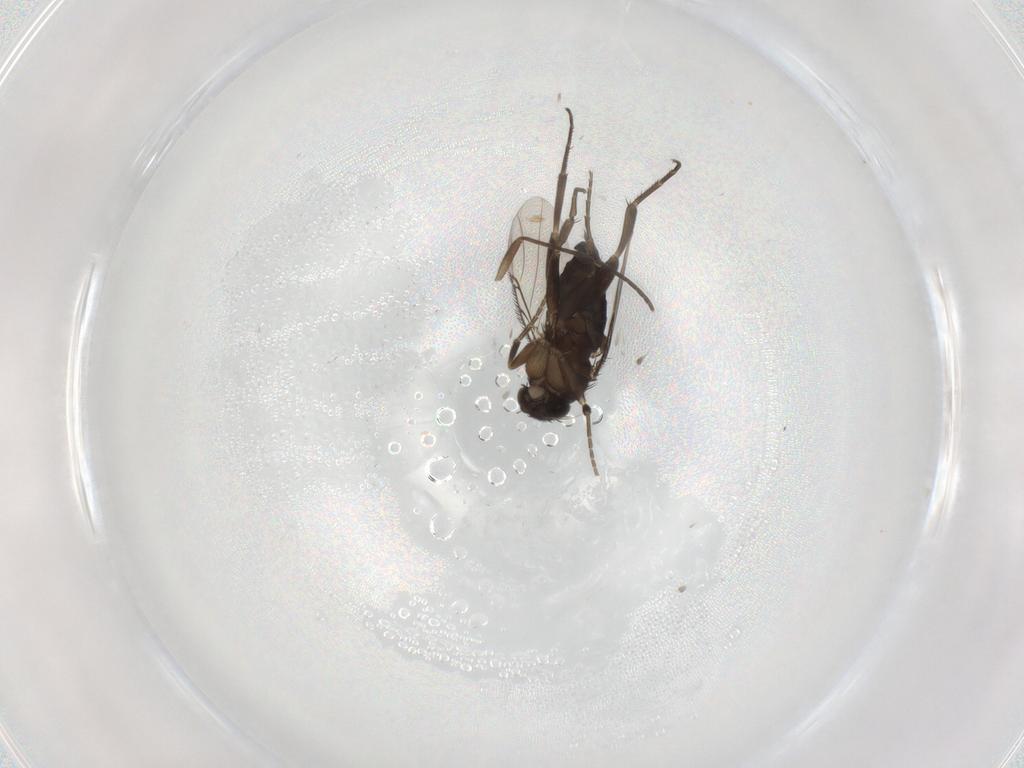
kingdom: Animalia
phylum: Arthropoda
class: Insecta
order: Diptera
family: Phoridae
